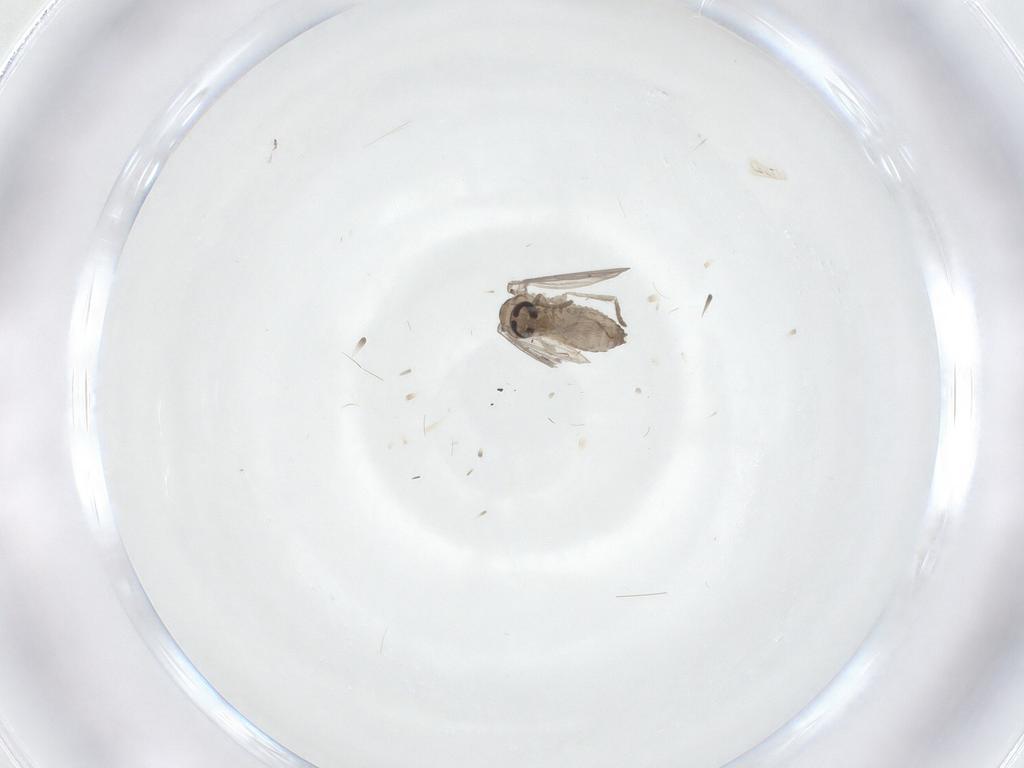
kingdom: Animalia
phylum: Arthropoda
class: Insecta
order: Diptera
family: Psychodidae
